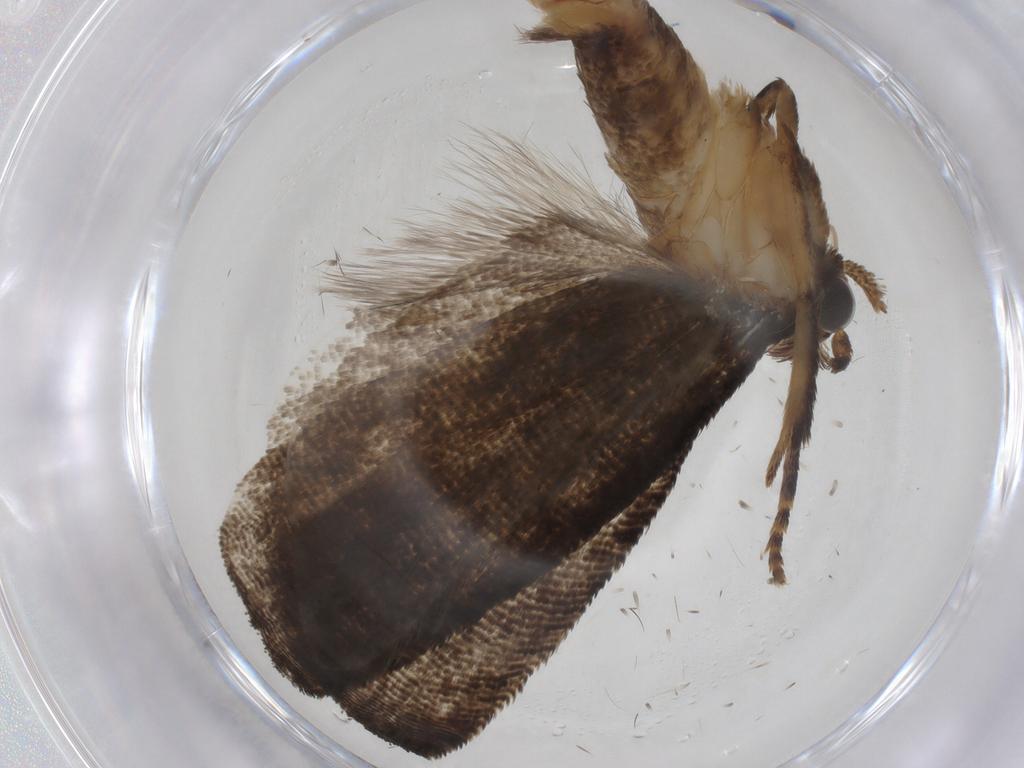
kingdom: Animalia
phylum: Arthropoda
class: Insecta
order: Lepidoptera
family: Tortricidae
